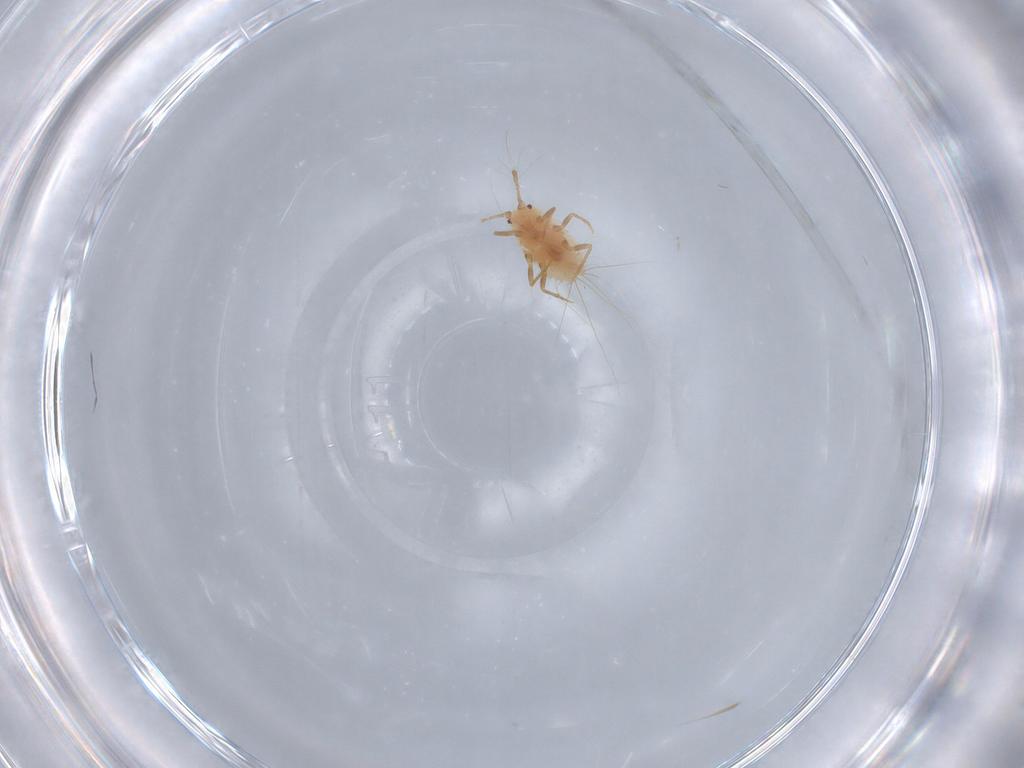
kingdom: Animalia
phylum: Arthropoda
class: Insecta
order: Hemiptera
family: Coccoidea_incertae_sedis
